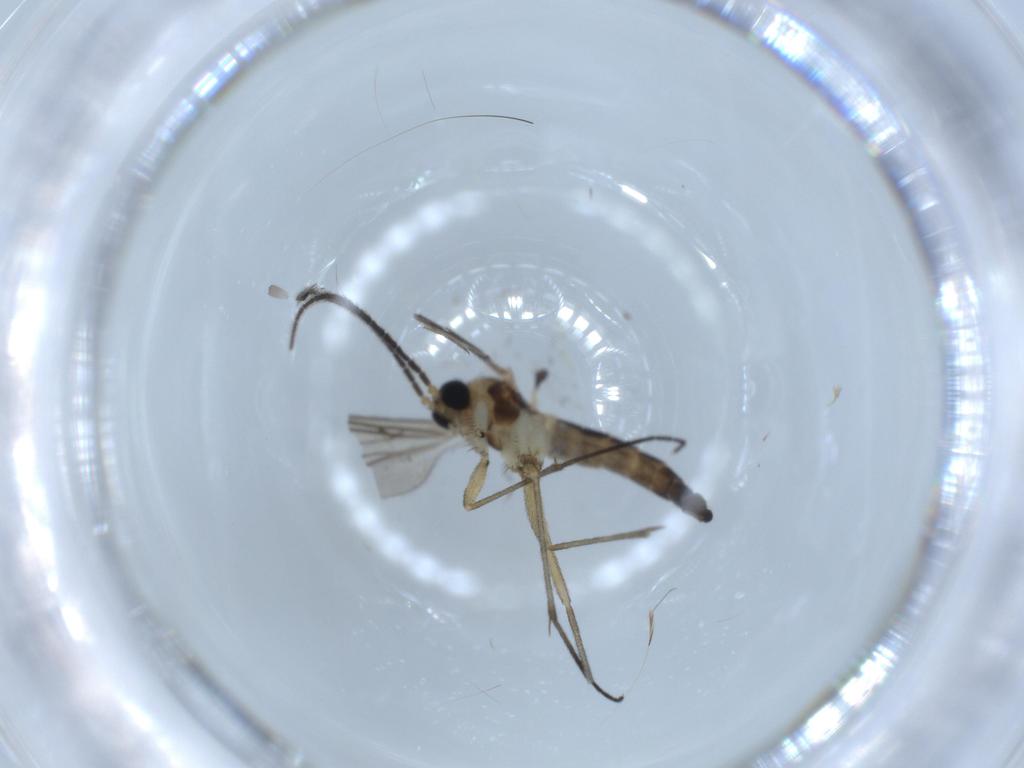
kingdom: Animalia
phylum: Arthropoda
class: Insecta
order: Diptera
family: Sciaridae
